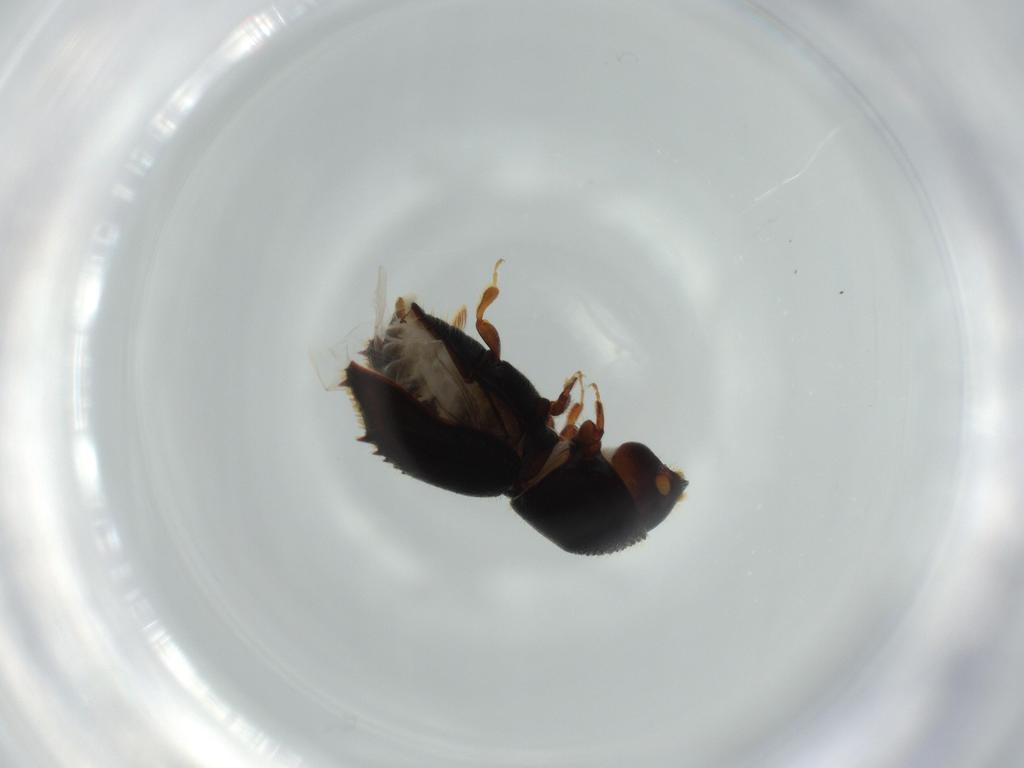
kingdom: Animalia
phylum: Arthropoda
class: Insecta
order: Coleoptera
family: Curculionidae
